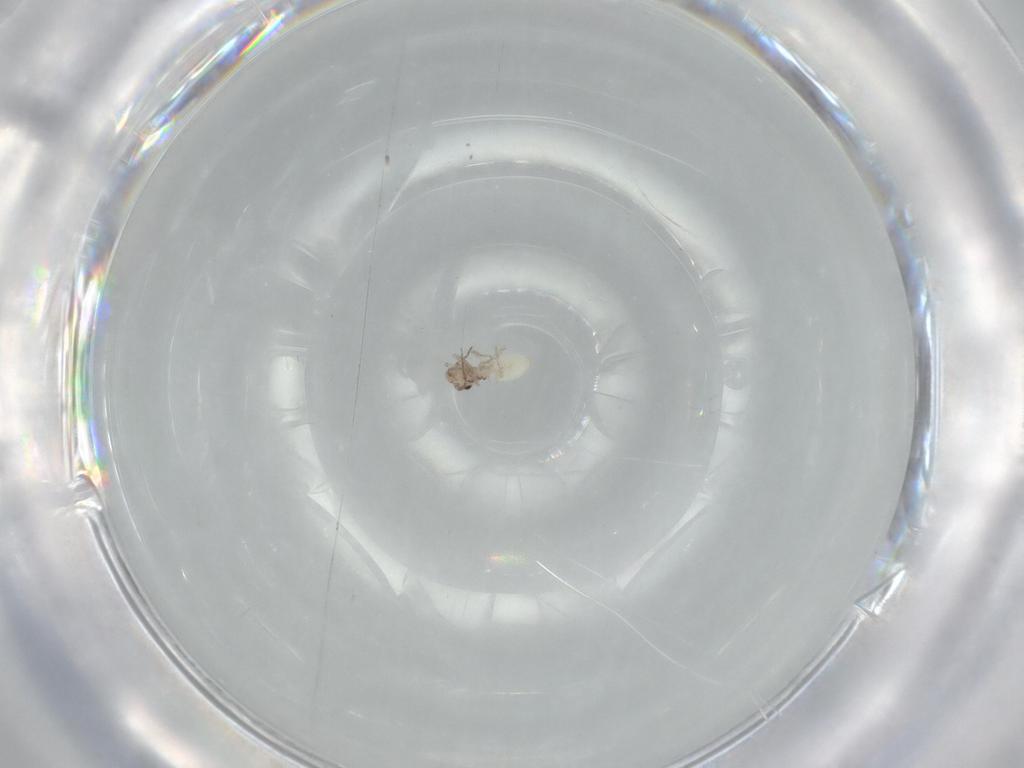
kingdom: Animalia
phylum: Arthropoda
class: Insecta
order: Psocodea
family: Lepidopsocidae
